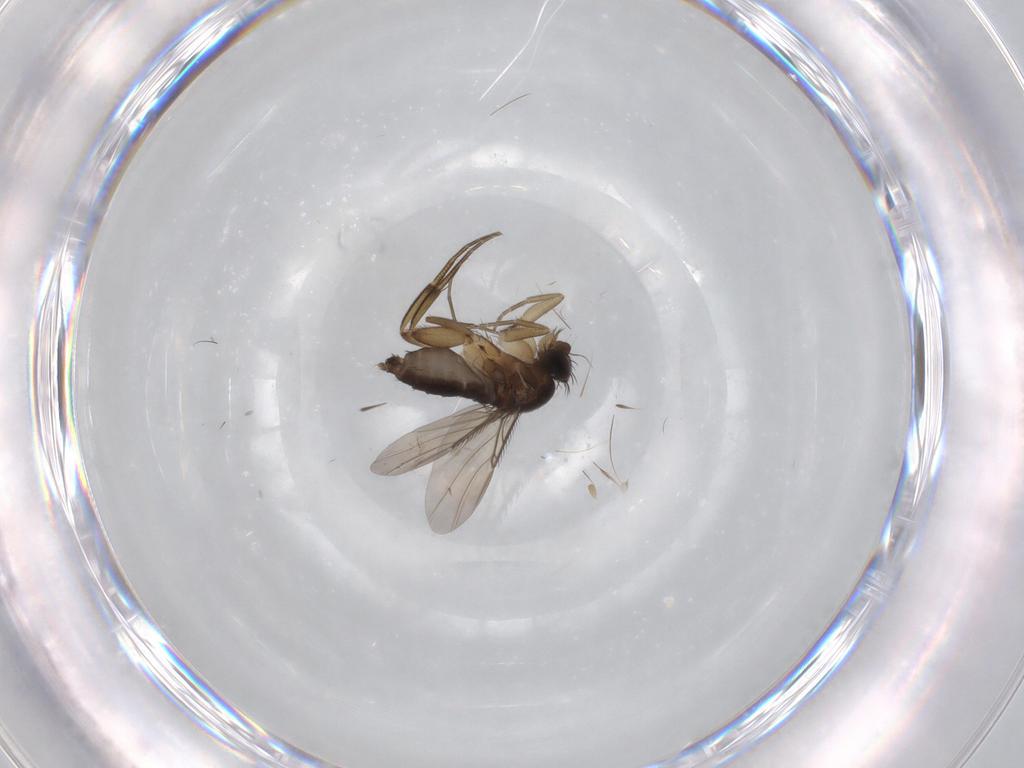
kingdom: Animalia
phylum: Arthropoda
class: Insecta
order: Diptera
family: Phoridae
